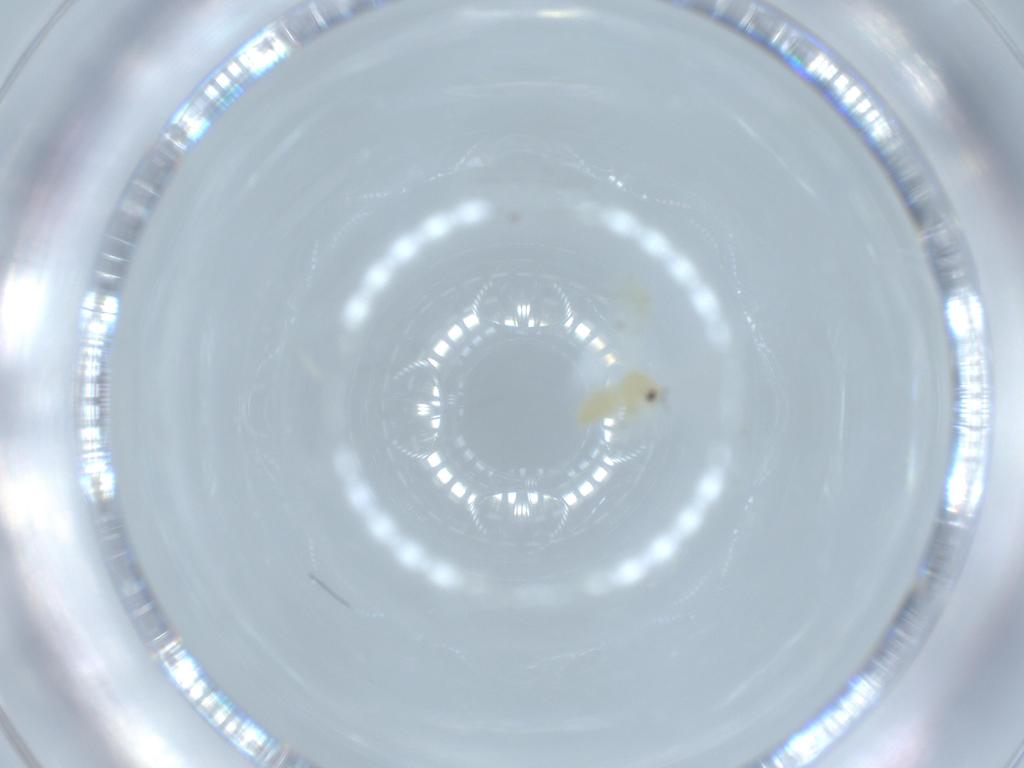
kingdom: Animalia
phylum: Arthropoda
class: Insecta
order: Hemiptera
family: Aleyrodidae
